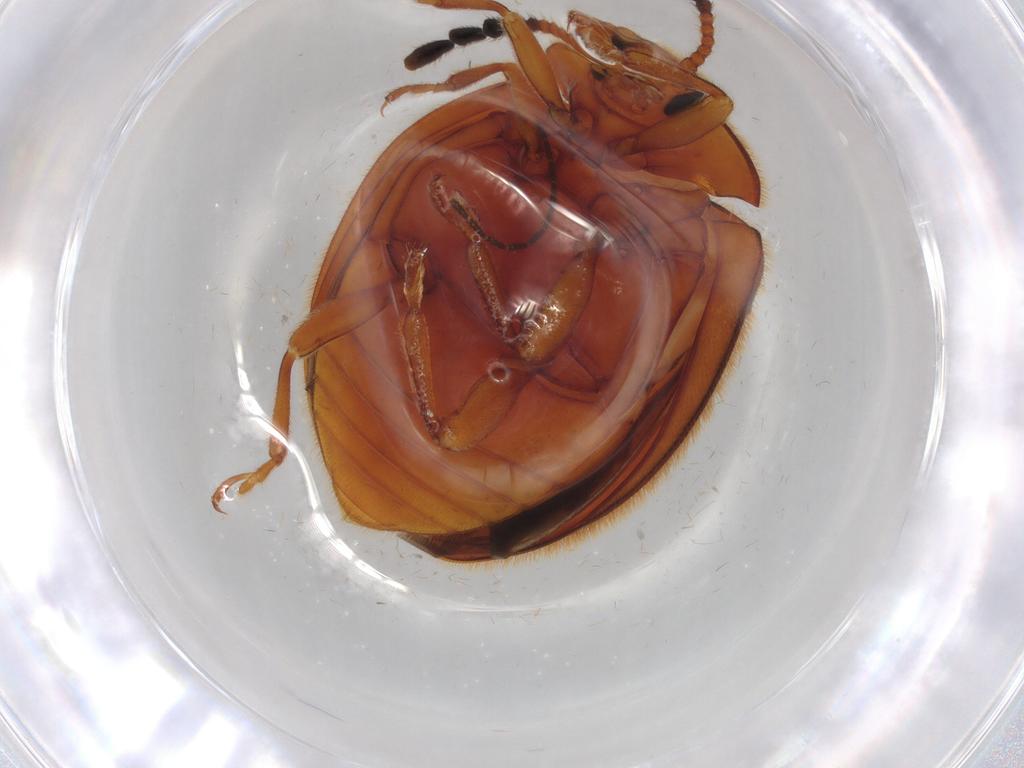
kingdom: Animalia
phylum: Arthropoda
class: Insecta
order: Coleoptera
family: Endomychidae
